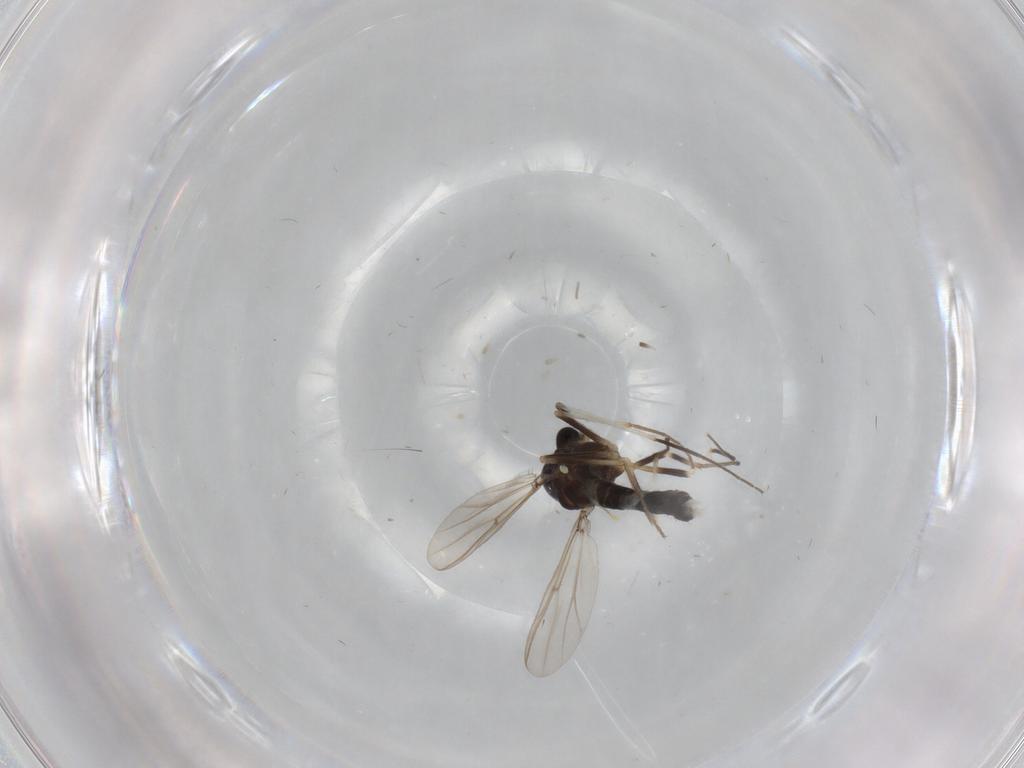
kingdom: Animalia
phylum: Arthropoda
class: Insecta
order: Diptera
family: Chironomidae
